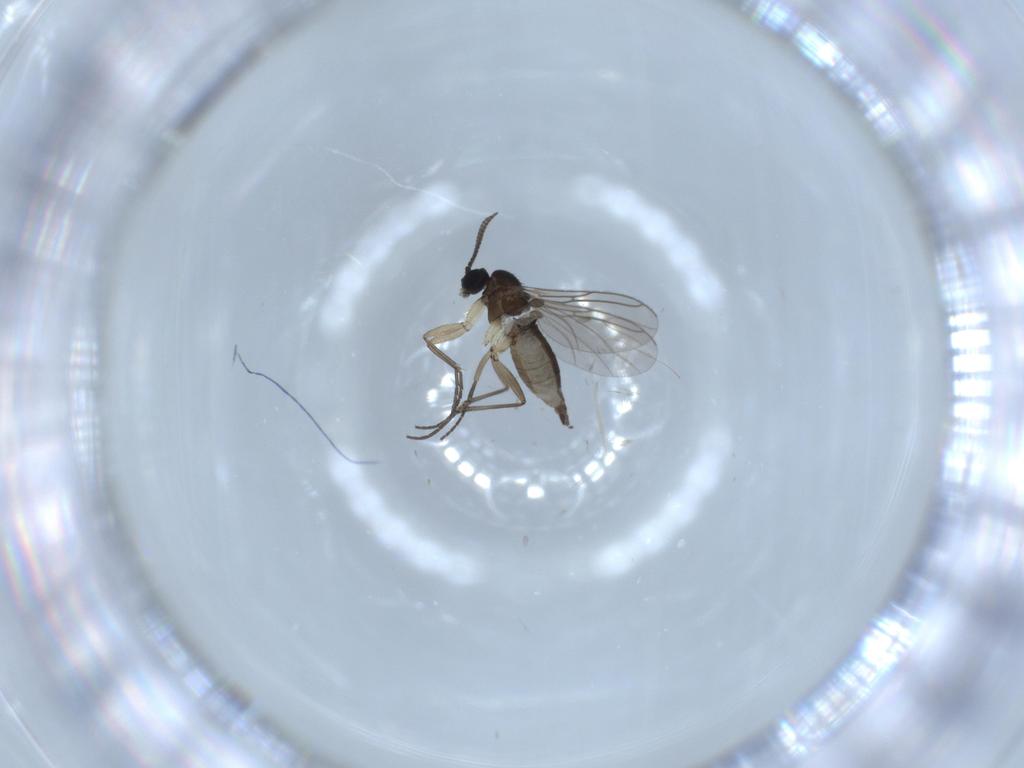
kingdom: Animalia
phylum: Arthropoda
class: Insecta
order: Diptera
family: Sciaridae
